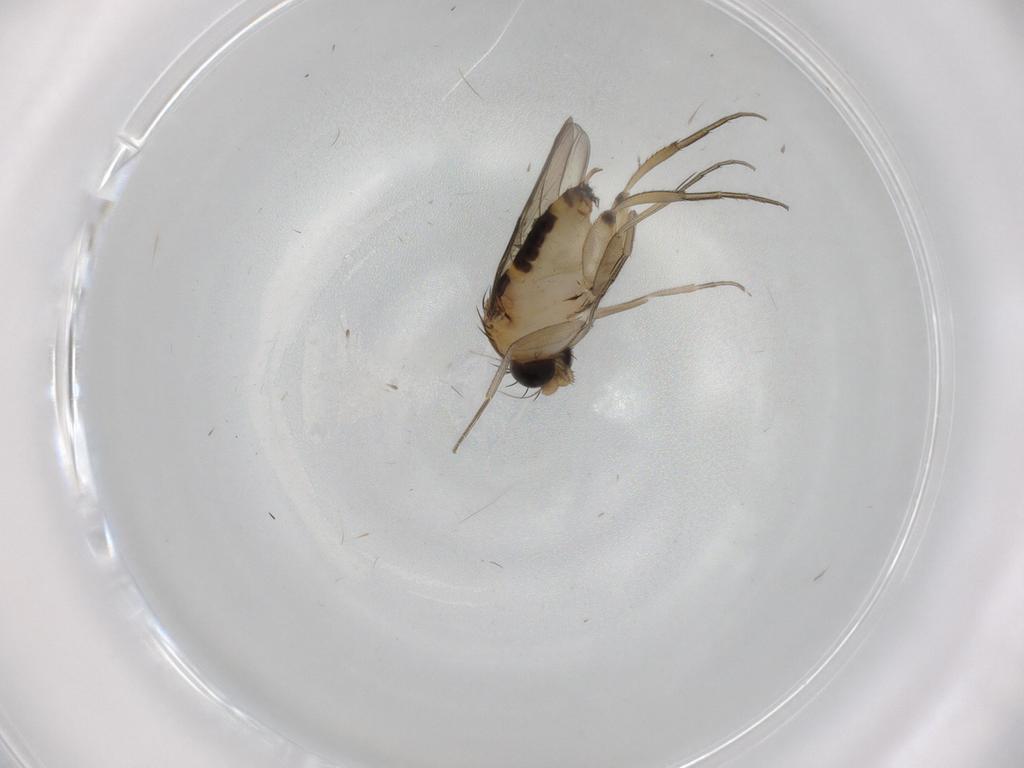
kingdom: Animalia
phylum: Arthropoda
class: Insecta
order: Diptera
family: Phoridae
